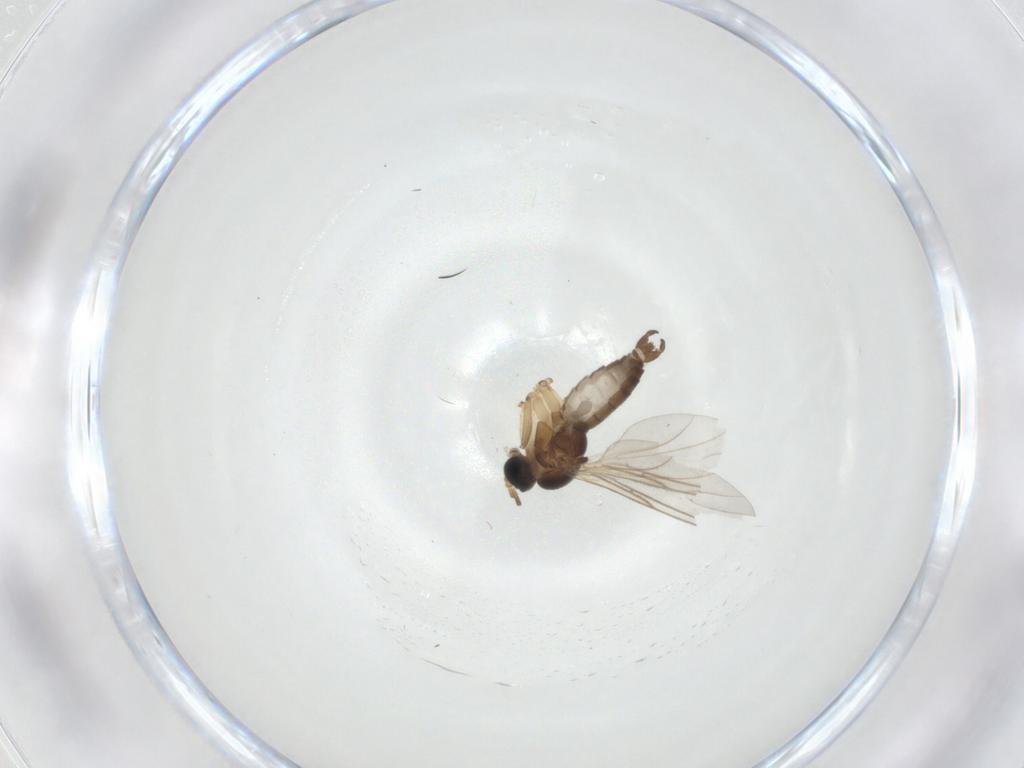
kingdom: Animalia
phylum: Arthropoda
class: Insecta
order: Diptera
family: Sciaridae
